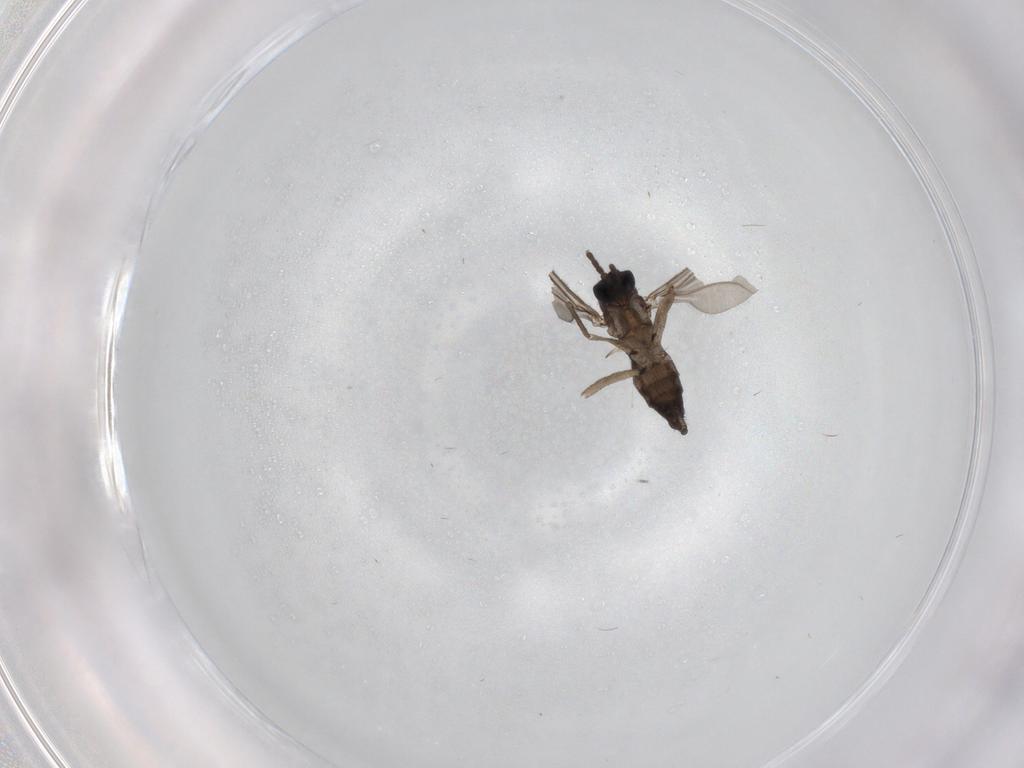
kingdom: Animalia
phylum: Arthropoda
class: Insecta
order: Diptera
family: Sciaridae
